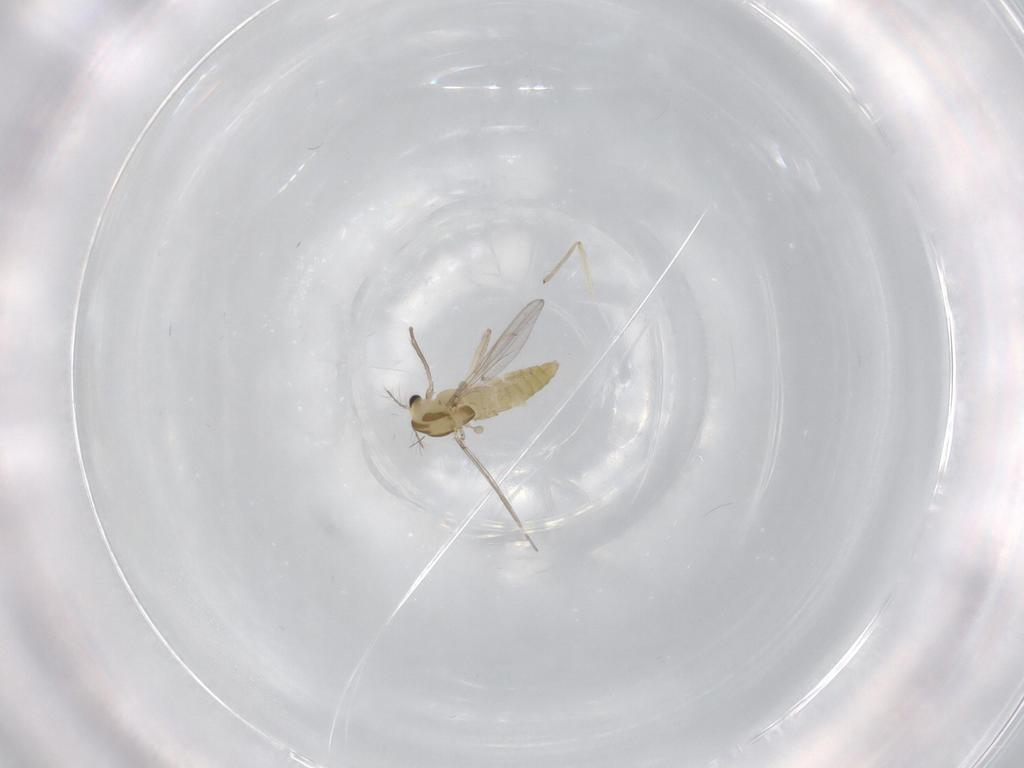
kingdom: Animalia
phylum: Arthropoda
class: Insecta
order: Diptera
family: Chironomidae
